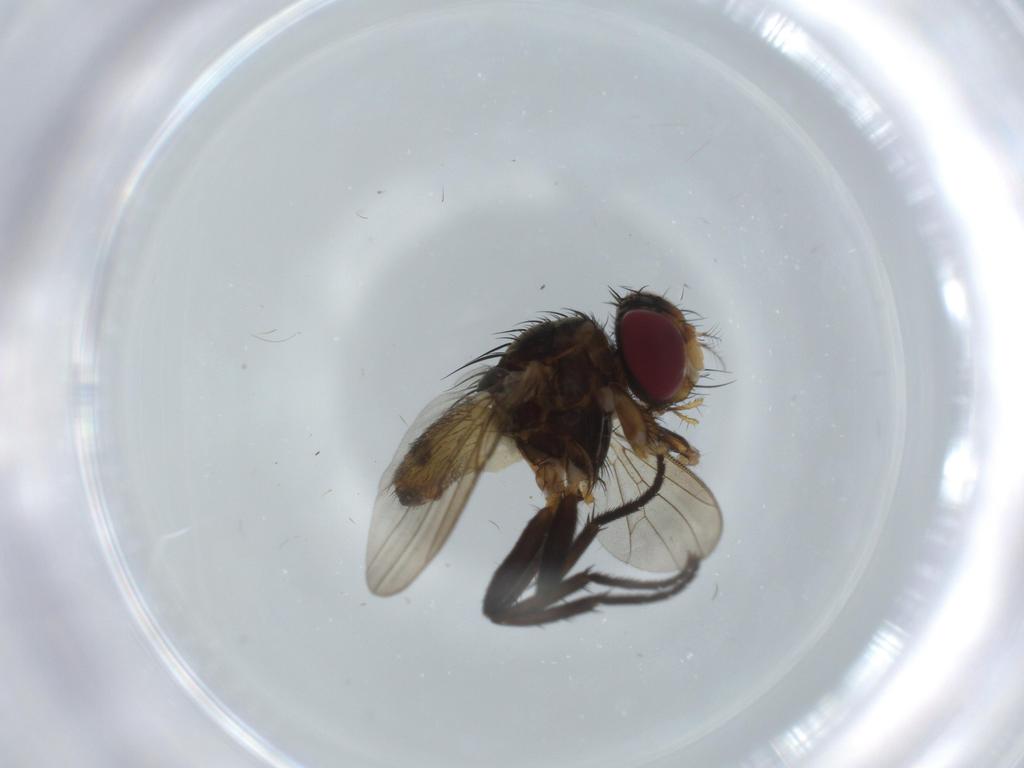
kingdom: Animalia
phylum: Arthropoda
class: Insecta
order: Diptera
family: Anthomyiidae
